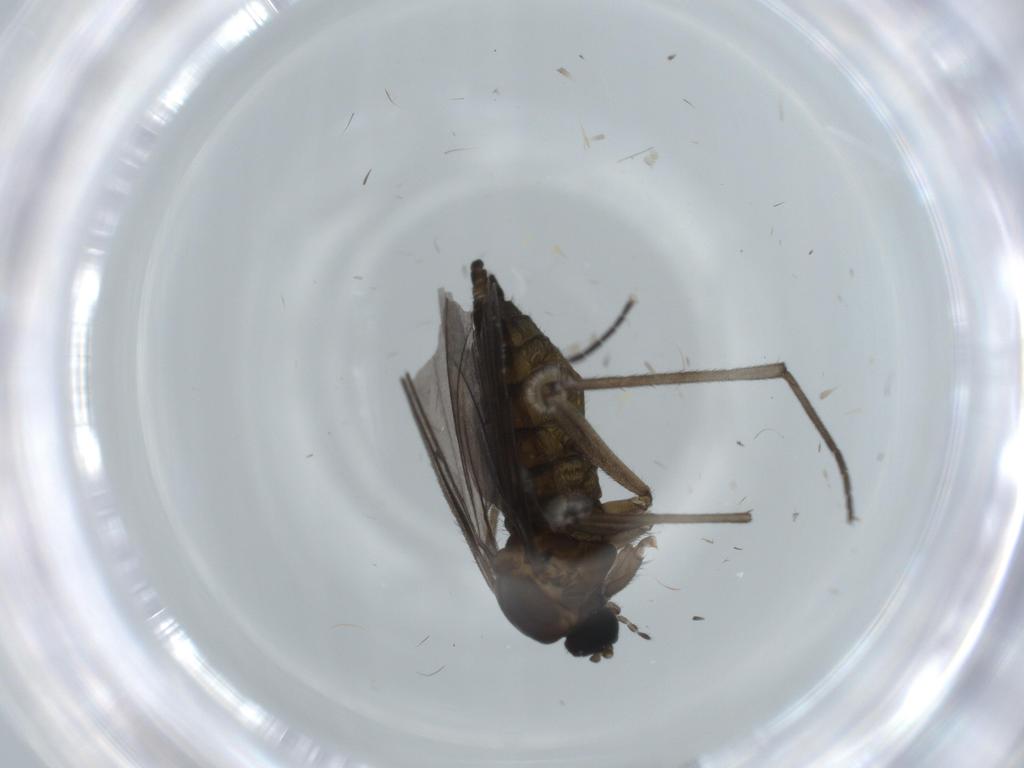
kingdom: Animalia
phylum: Arthropoda
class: Insecta
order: Diptera
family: Sciaridae
